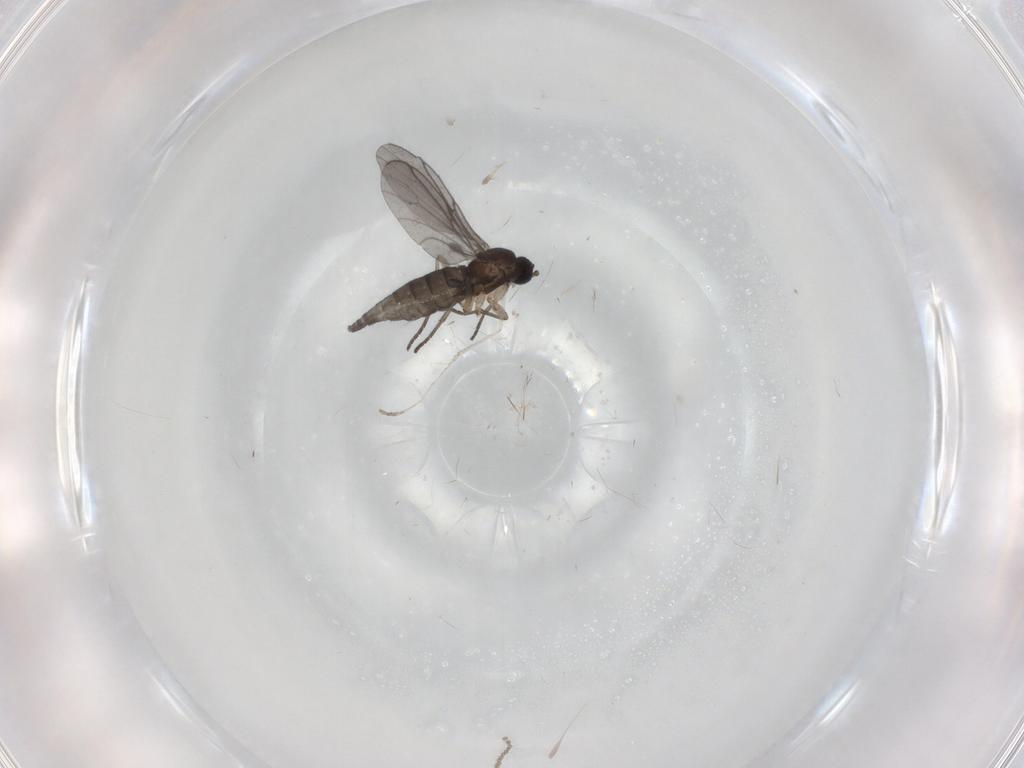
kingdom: Animalia
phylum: Arthropoda
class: Insecta
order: Diptera
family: Sciaridae
